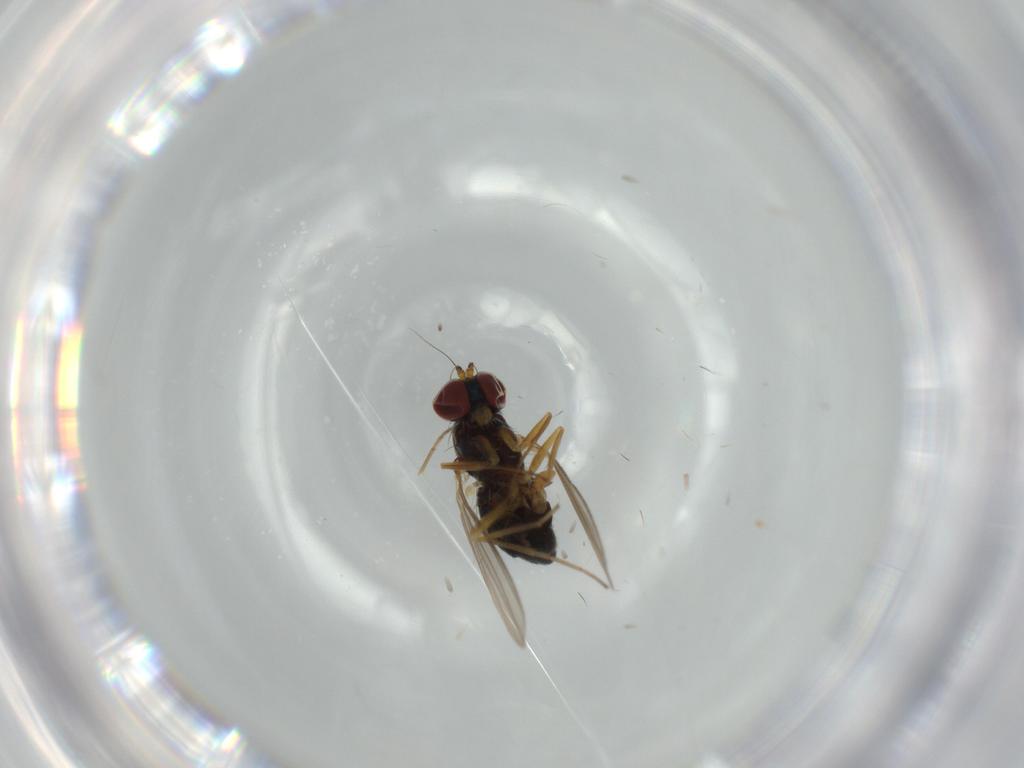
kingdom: Animalia
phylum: Arthropoda
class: Insecta
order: Diptera
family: Dolichopodidae
